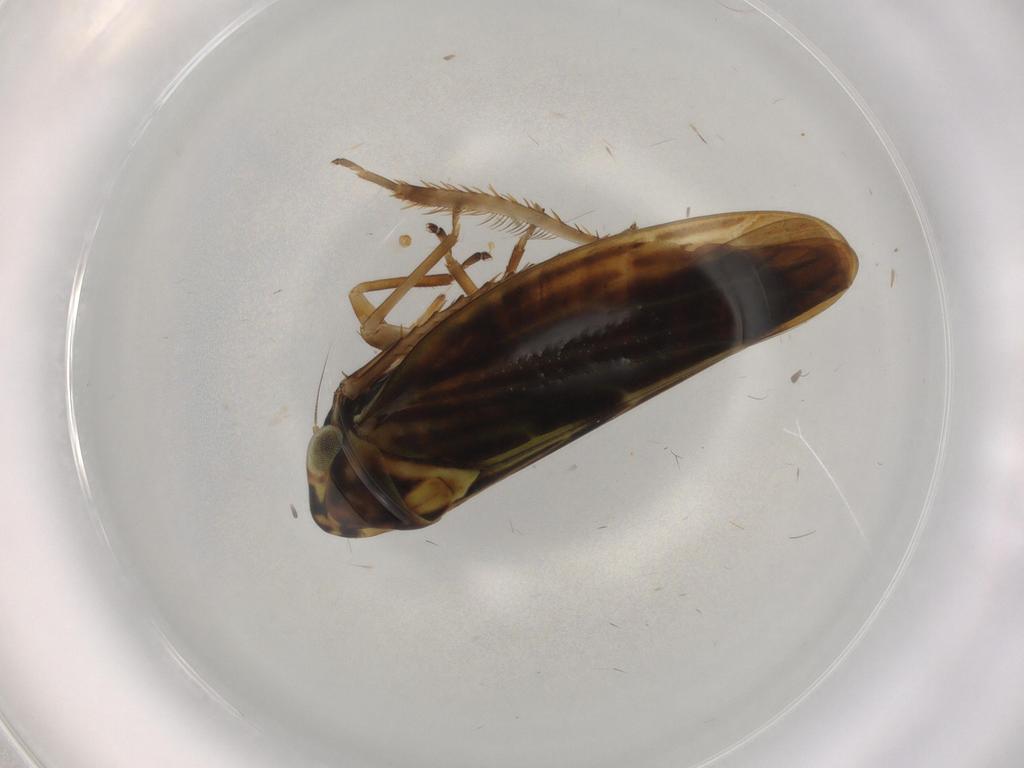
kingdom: Animalia
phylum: Arthropoda
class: Insecta
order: Hemiptera
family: Cicadellidae
